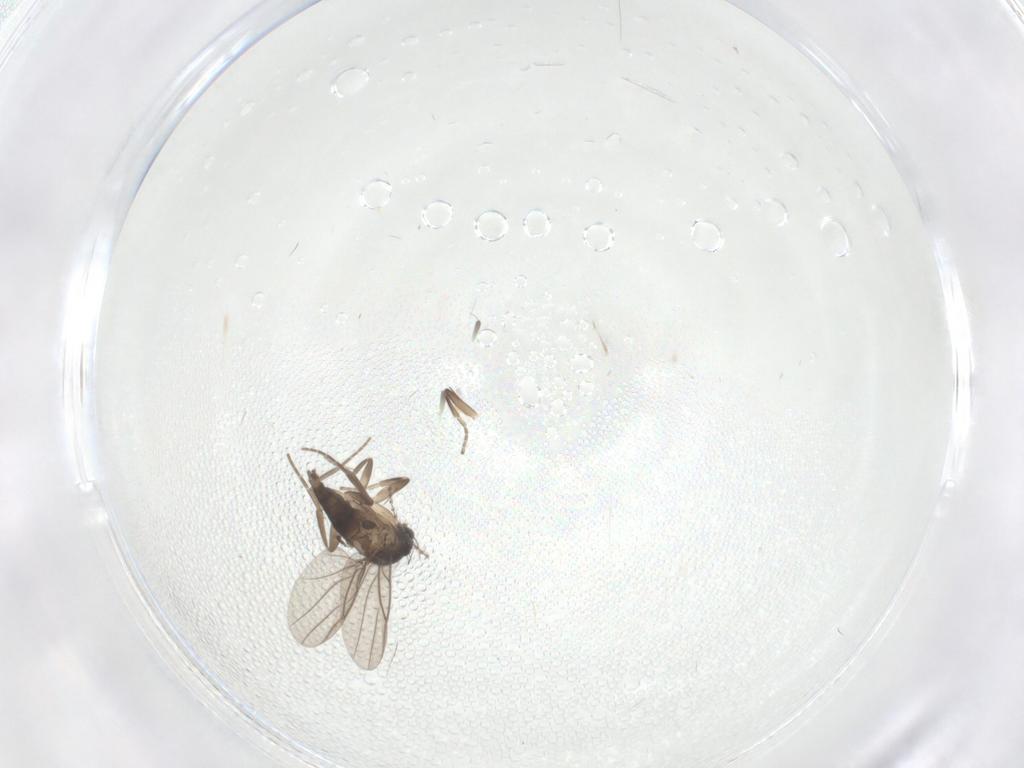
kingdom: Animalia
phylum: Arthropoda
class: Insecta
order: Diptera
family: Cecidomyiidae
